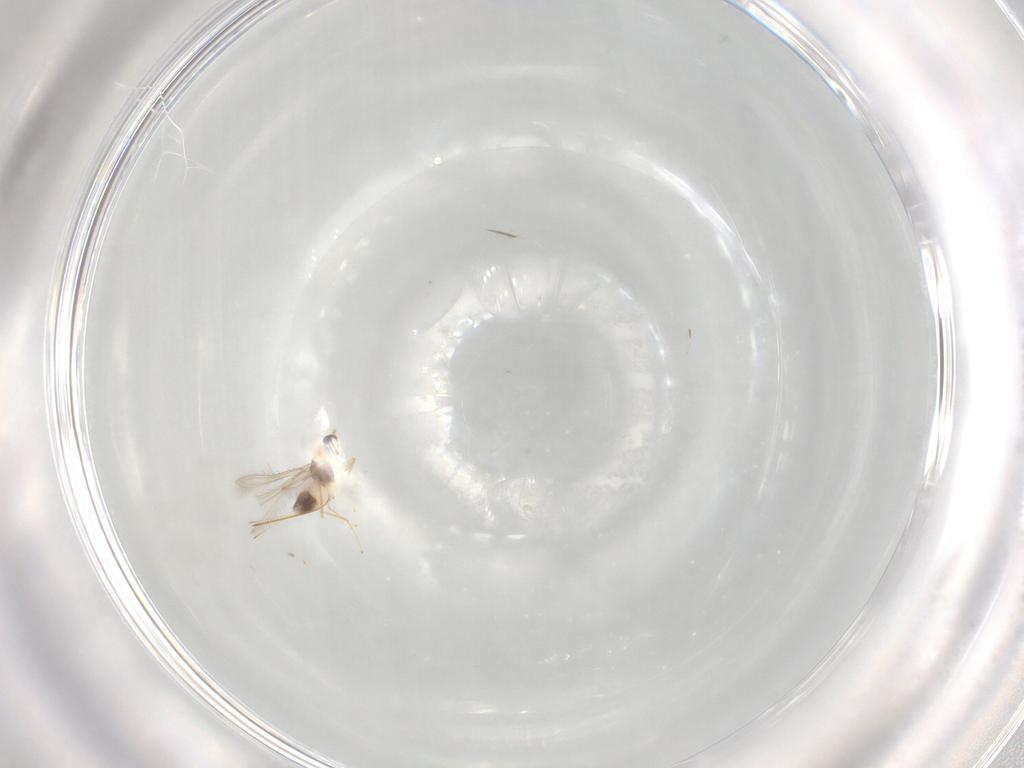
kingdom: Animalia
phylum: Arthropoda
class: Insecta
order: Hymenoptera
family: Mymaridae
